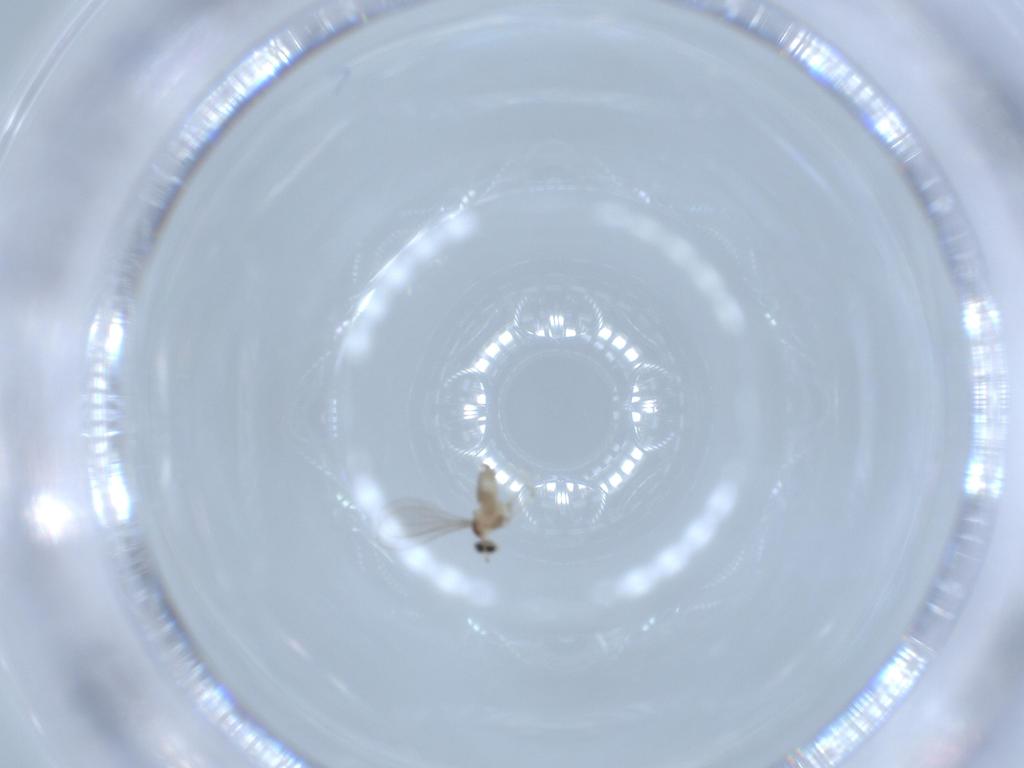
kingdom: Animalia
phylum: Arthropoda
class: Insecta
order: Diptera
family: Cecidomyiidae
